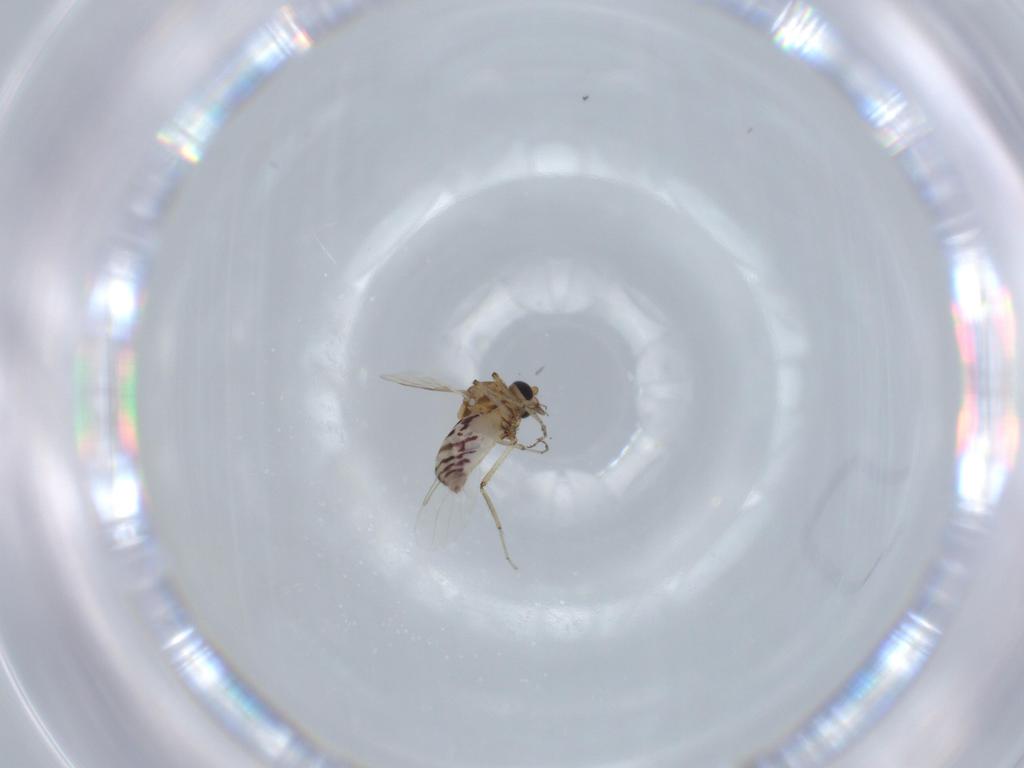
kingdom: Animalia
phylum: Arthropoda
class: Insecta
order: Diptera
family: Sciaridae
